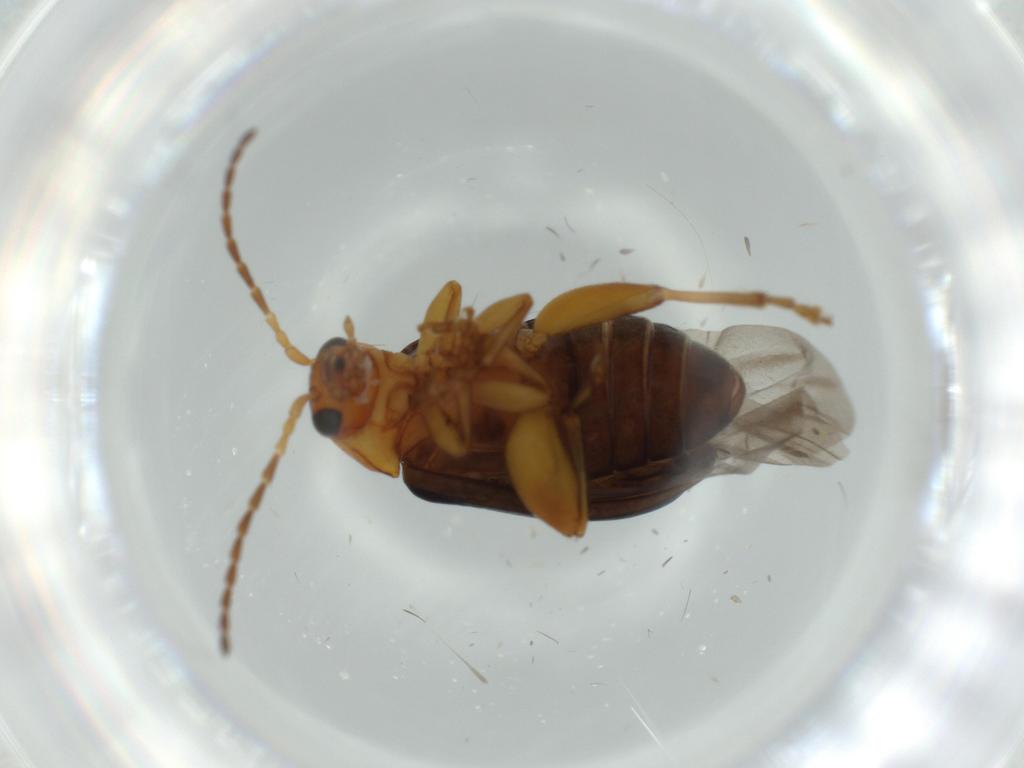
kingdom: Animalia
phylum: Arthropoda
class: Insecta
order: Coleoptera
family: Chrysomelidae
